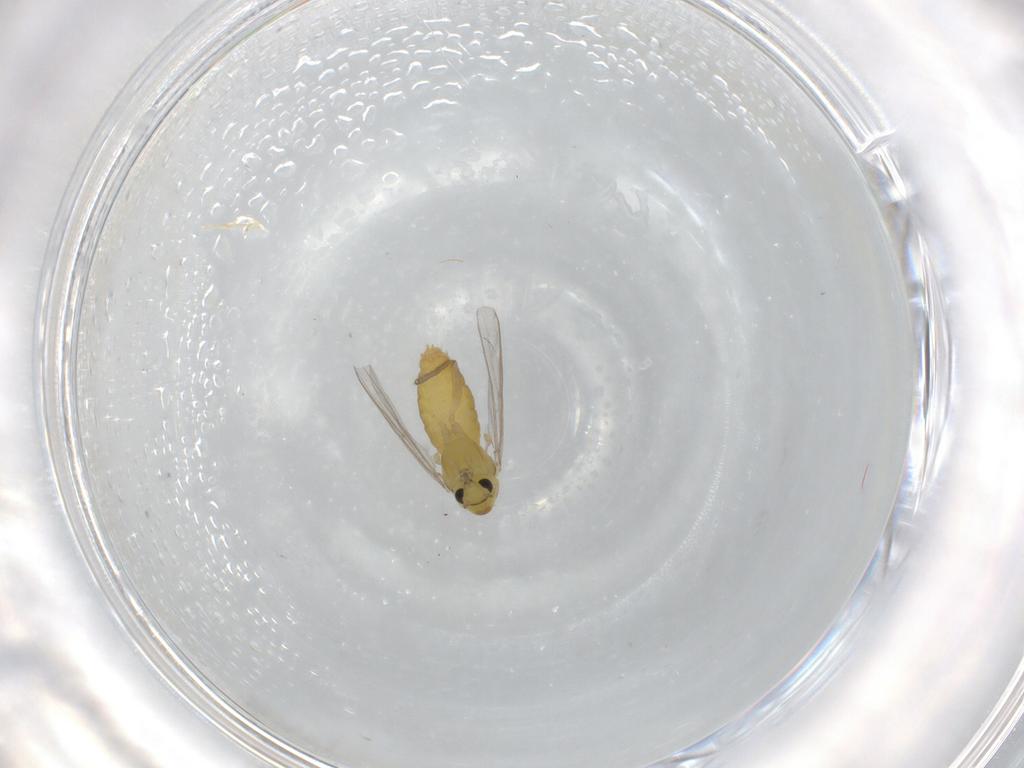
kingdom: Animalia
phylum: Arthropoda
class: Insecta
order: Diptera
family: Chironomidae
